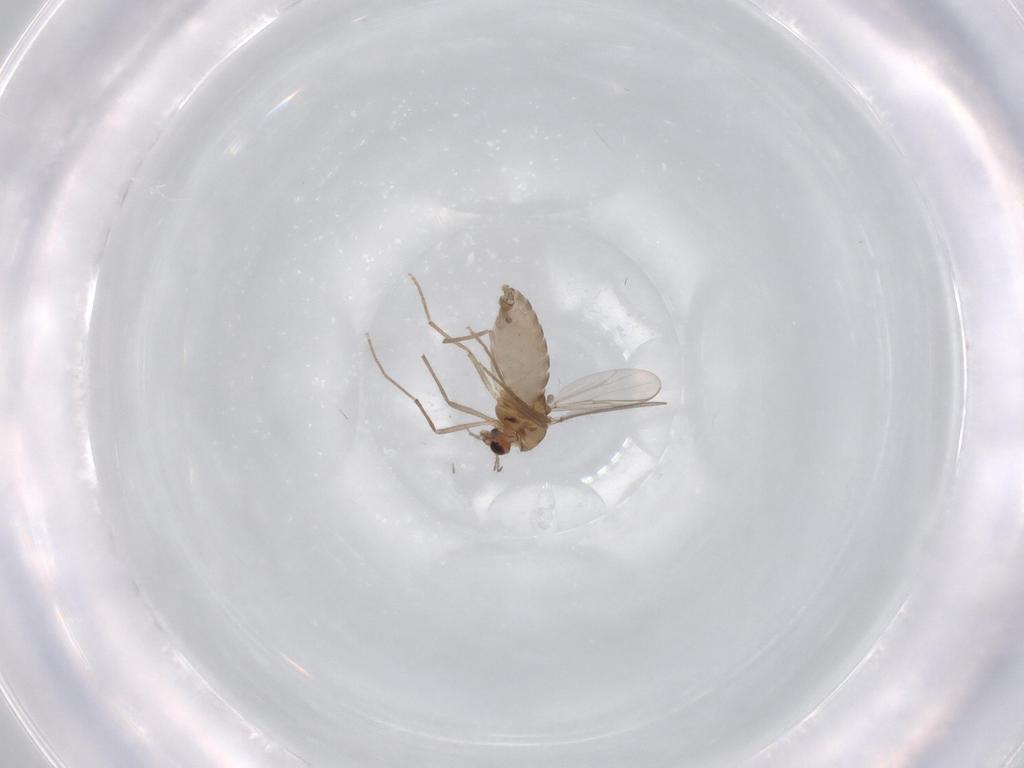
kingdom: Animalia
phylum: Arthropoda
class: Insecta
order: Diptera
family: Chironomidae
